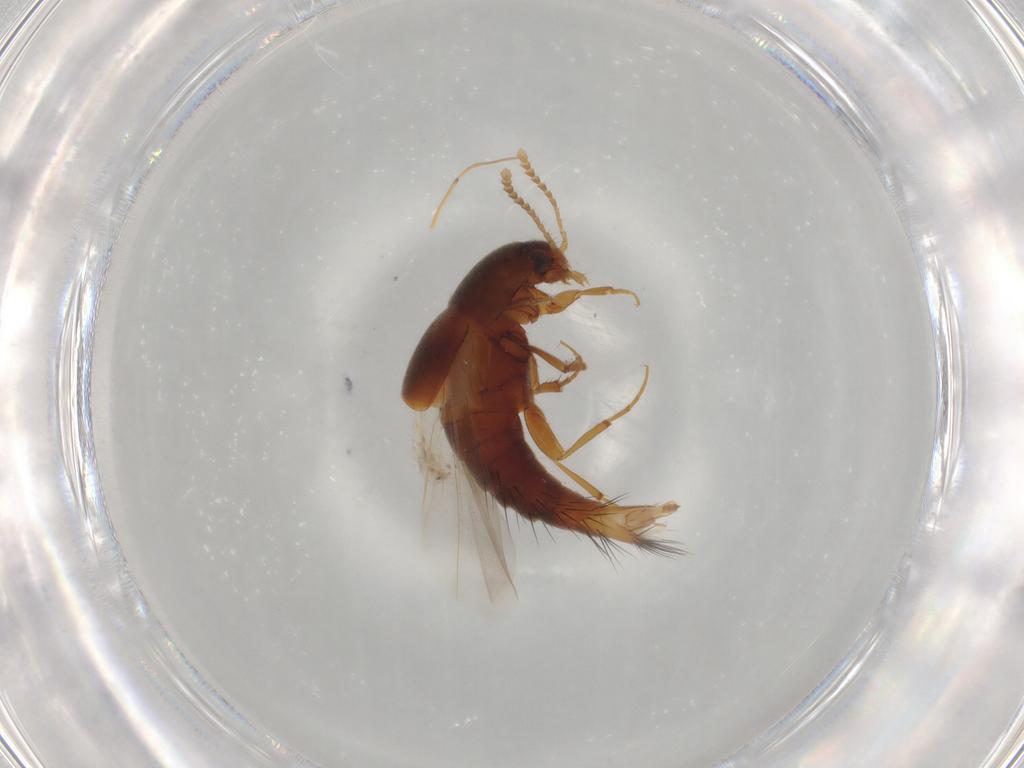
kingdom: Animalia
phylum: Arthropoda
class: Insecta
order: Coleoptera
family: Staphylinidae
